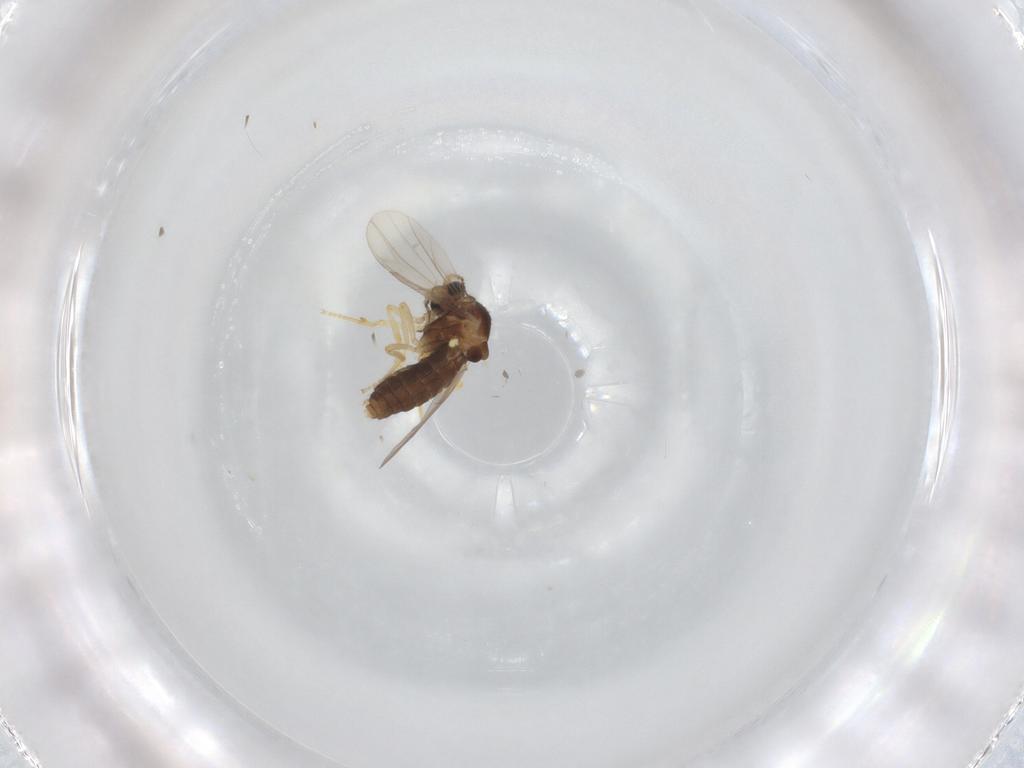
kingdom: Animalia
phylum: Arthropoda
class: Insecta
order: Diptera
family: Ceratopogonidae
